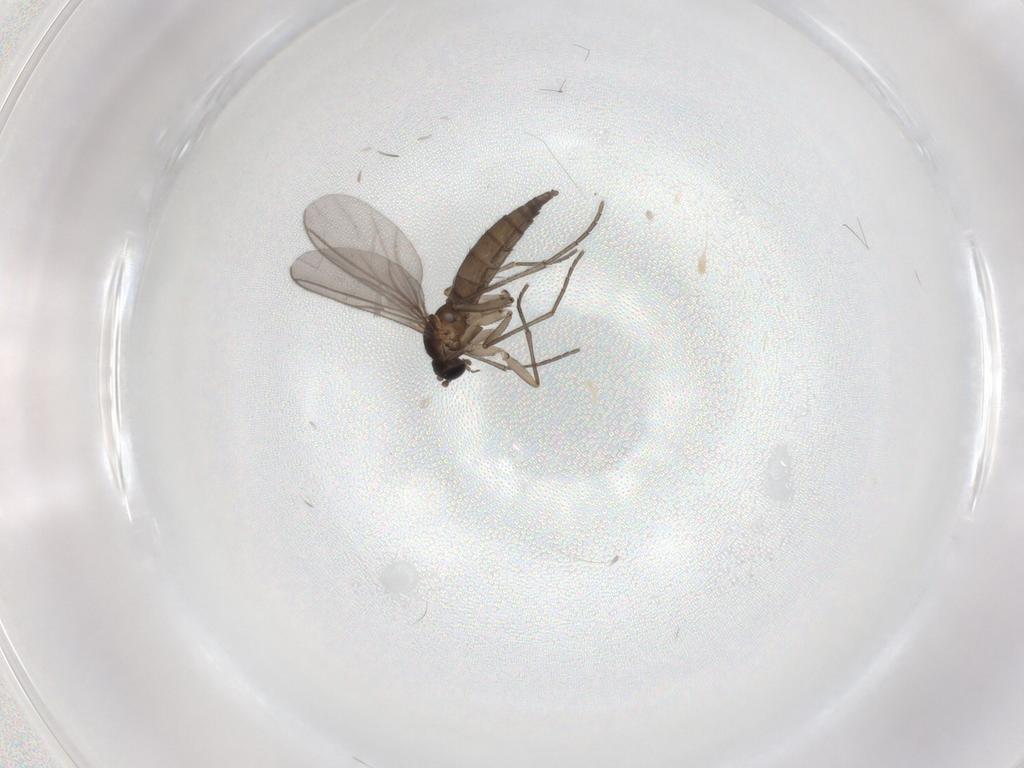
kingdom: Animalia
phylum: Arthropoda
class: Insecta
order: Diptera
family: Sciaridae
